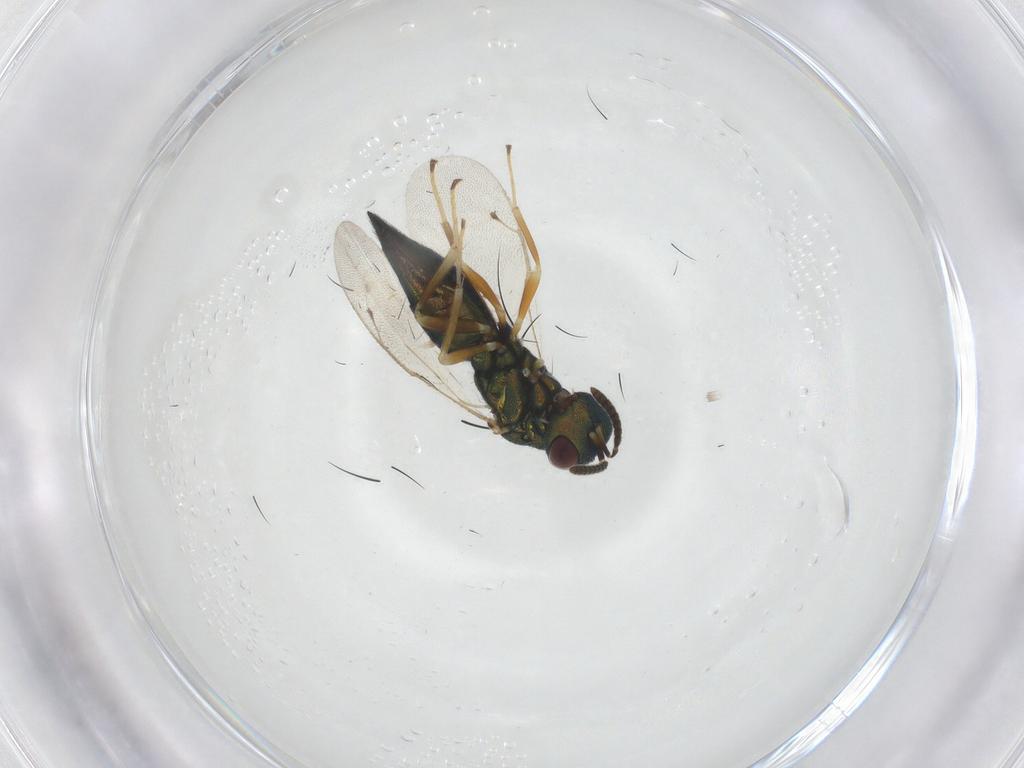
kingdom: Animalia
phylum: Arthropoda
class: Insecta
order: Hymenoptera
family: Pteromalidae
